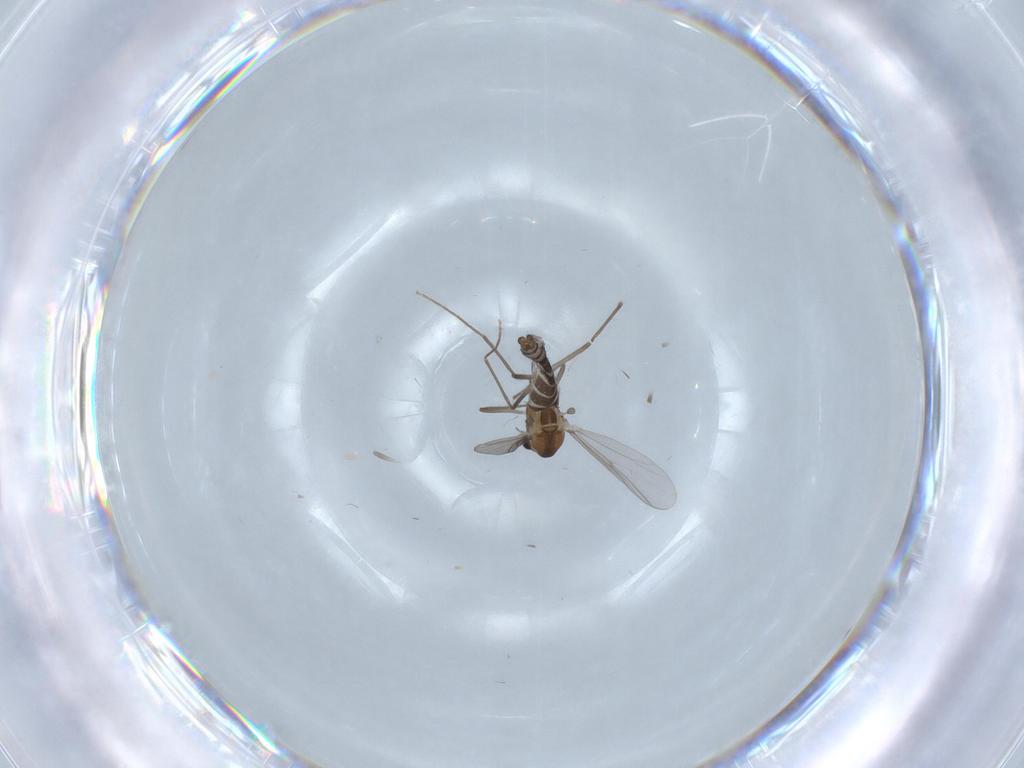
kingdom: Animalia
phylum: Arthropoda
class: Insecta
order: Diptera
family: Chironomidae
